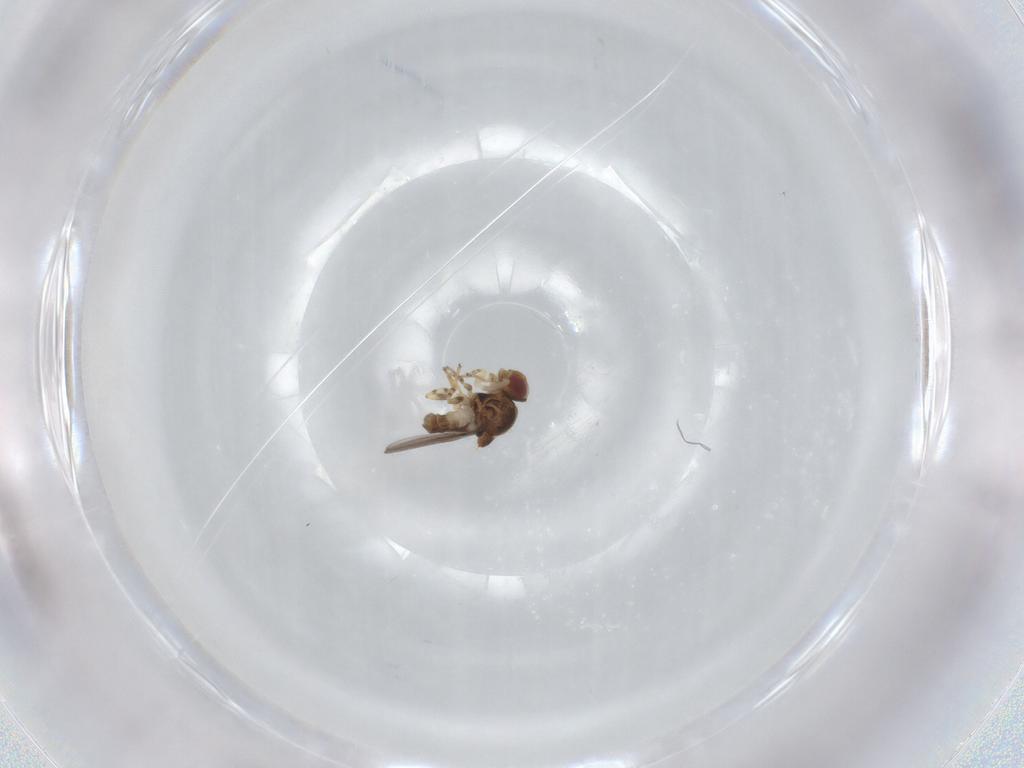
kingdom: Animalia
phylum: Arthropoda
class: Insecta
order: Diptera
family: Chloropidae
